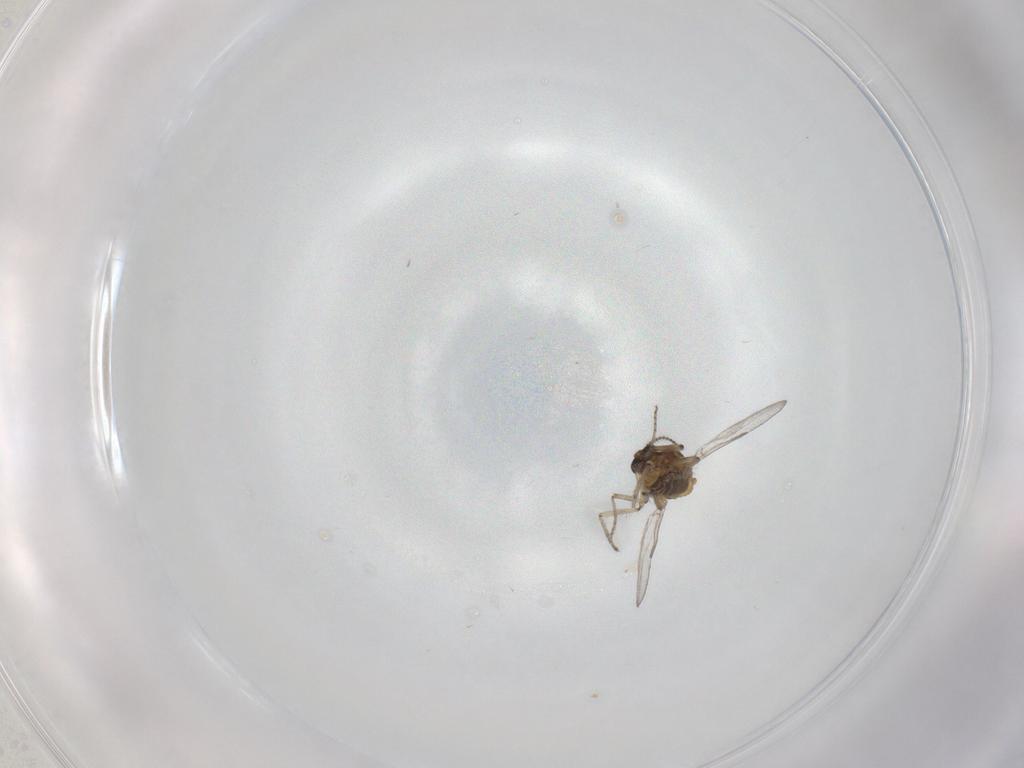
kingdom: Animalia
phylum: Arthropoda
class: Insecta
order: Diptera
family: Ceratopogonidae
